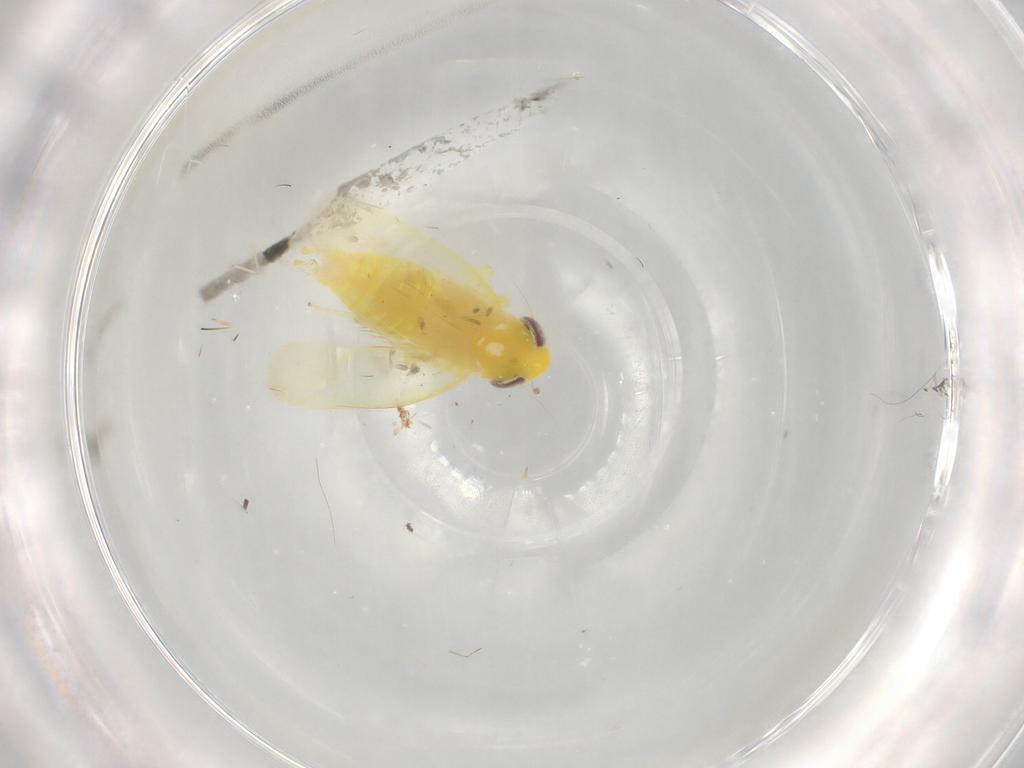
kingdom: Animalia
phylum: Arthropoda
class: Insecta
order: Hemiptera
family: Cicadellidae
